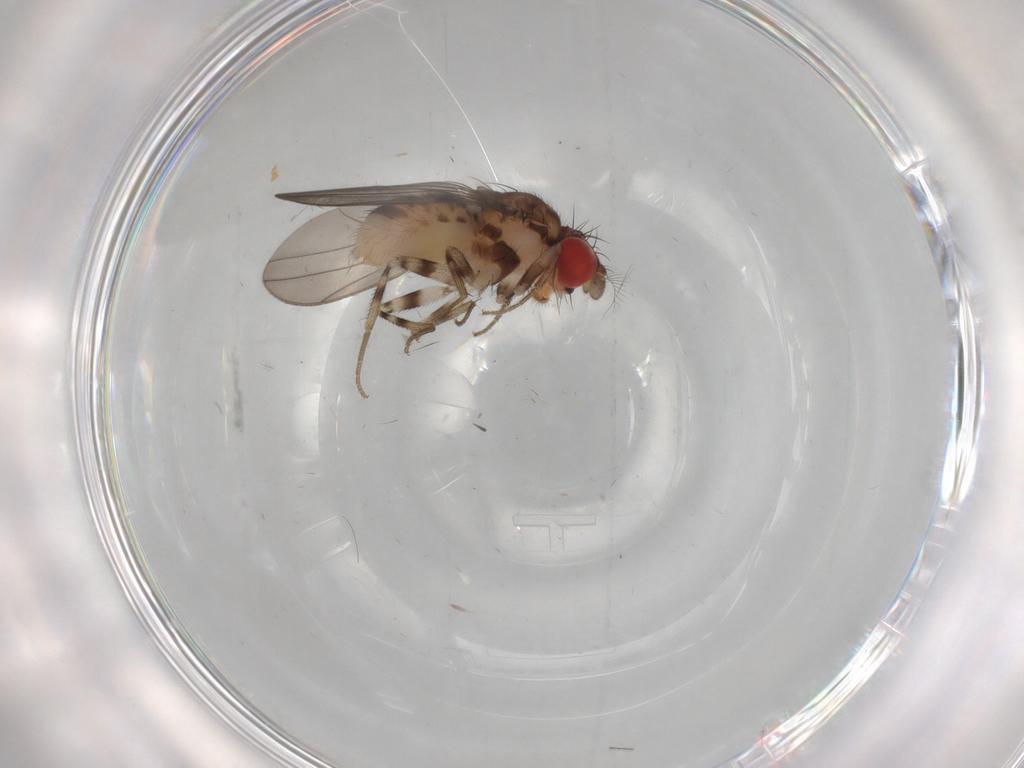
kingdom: Animalia
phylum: Arthropoda
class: Insecta
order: Diptera
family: Drosophilidae
